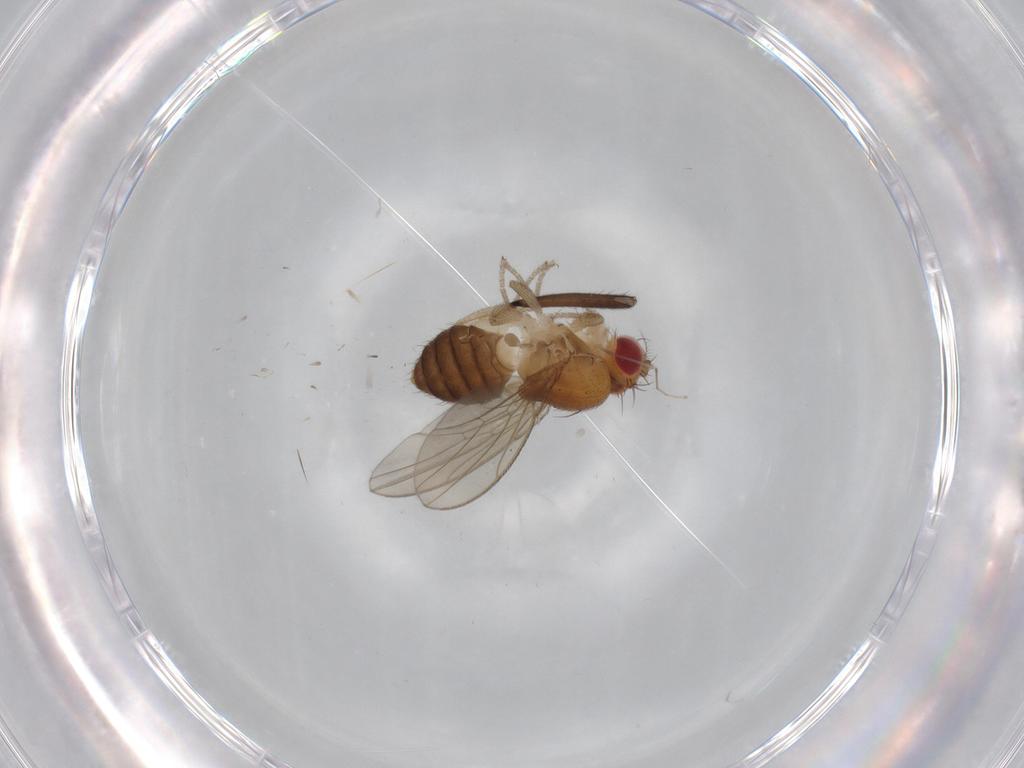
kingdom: Animalia
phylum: Arthropoda
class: Insecta
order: Diptera
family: Drosophilidae
